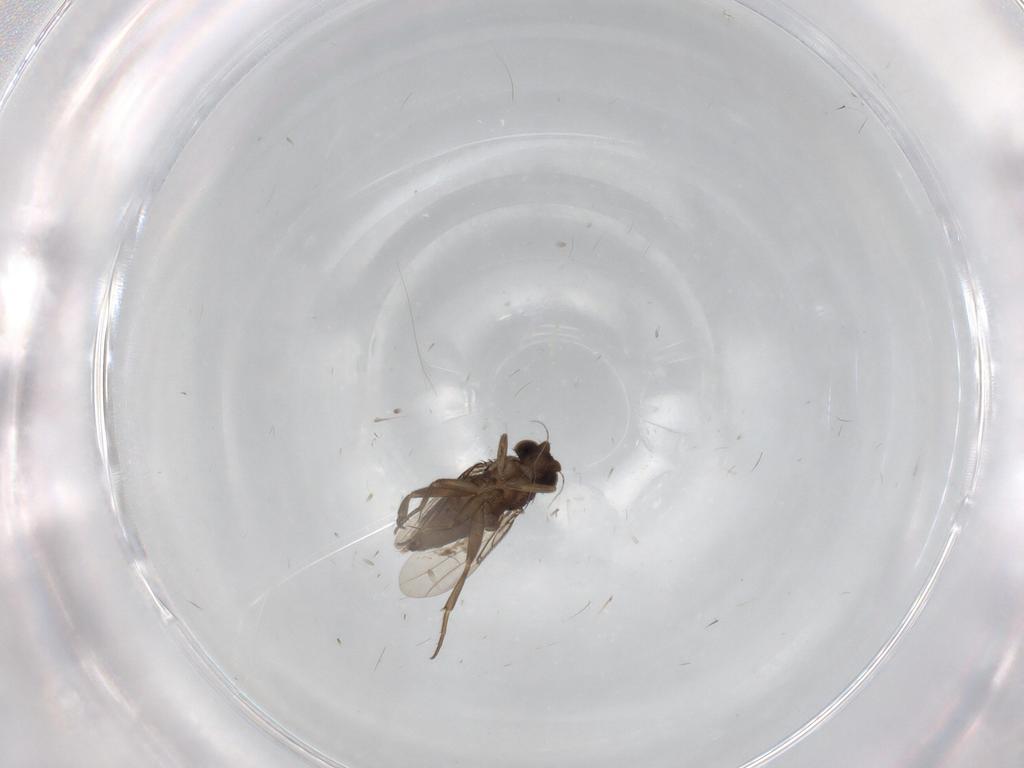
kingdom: Animalia
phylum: Arthropoda
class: Insecta
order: Diptera
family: Phoridae
